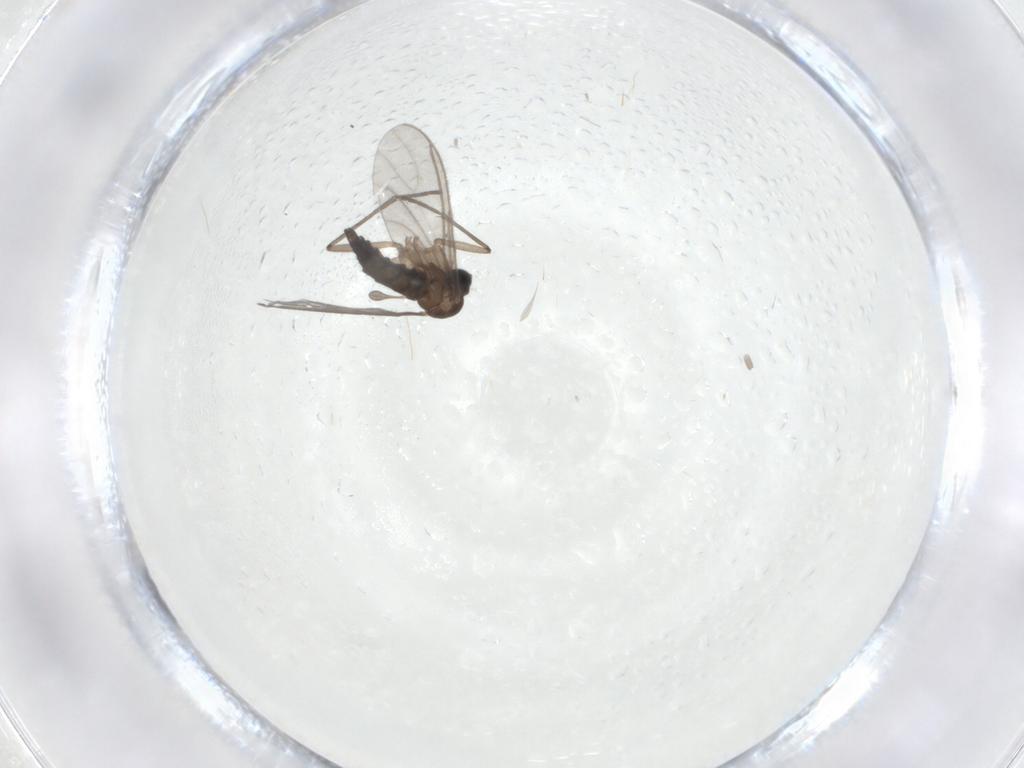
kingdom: Animalia
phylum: Arthropoda
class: Insecta
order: Diptera
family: Sciaridae
